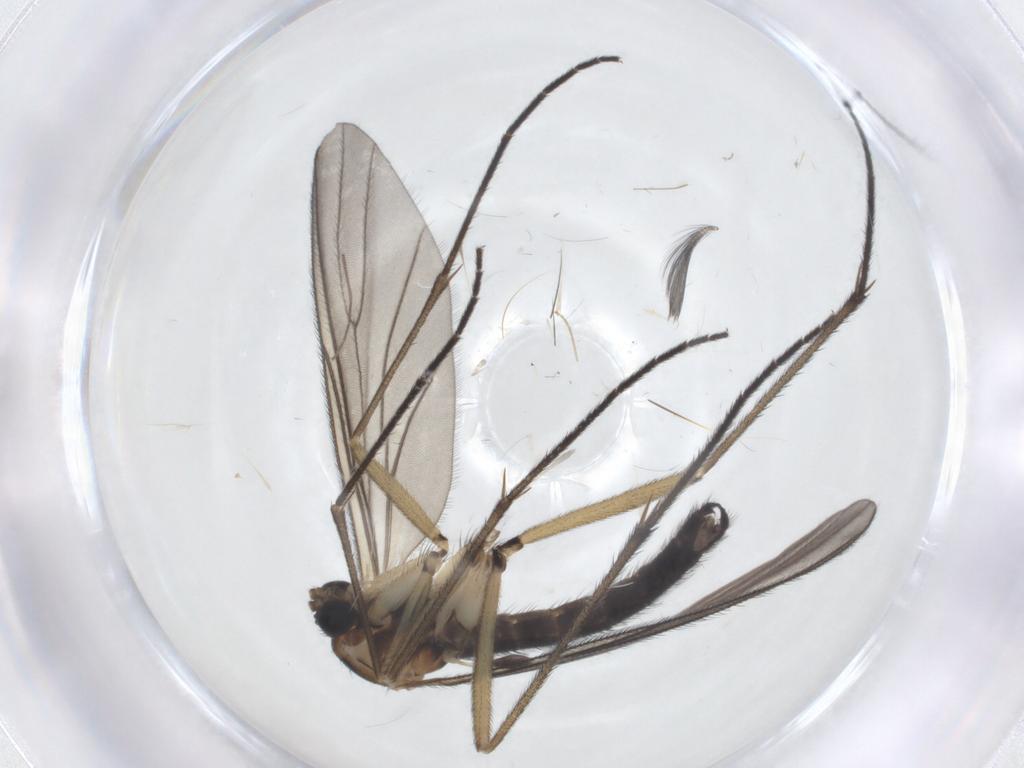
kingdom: Animalia
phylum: Arthropoda
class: Insecta
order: Diptera
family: Sciaridae
